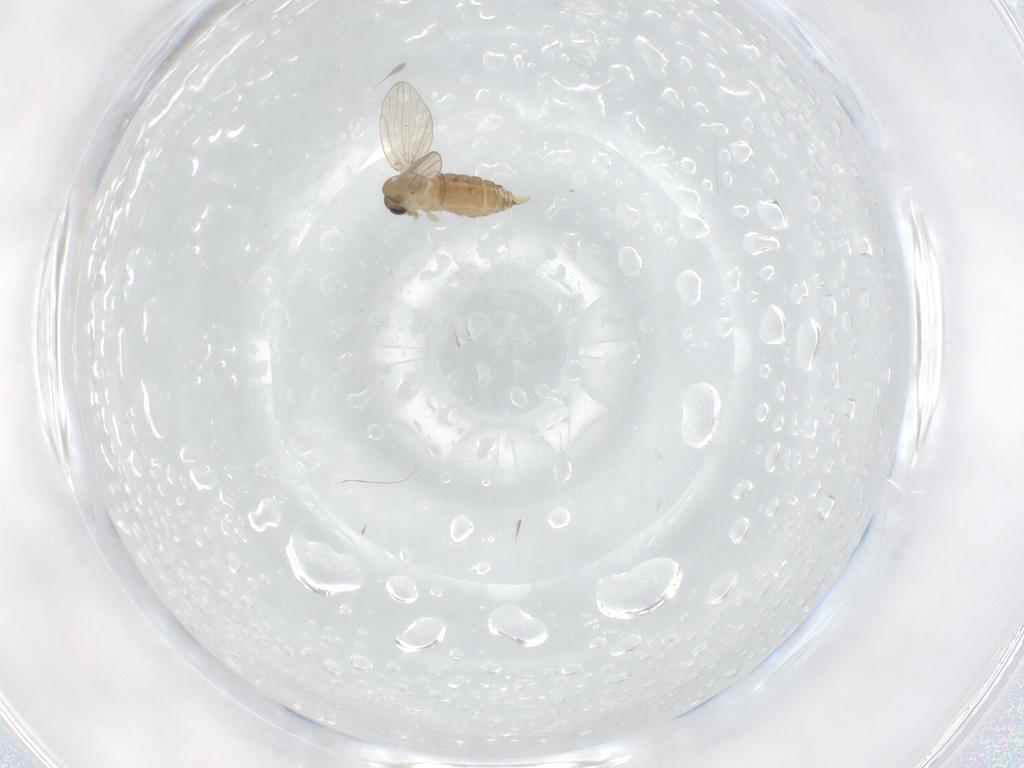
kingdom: Animalia
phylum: Arthropoda
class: Insecta
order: Diptera
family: Psychodidae
